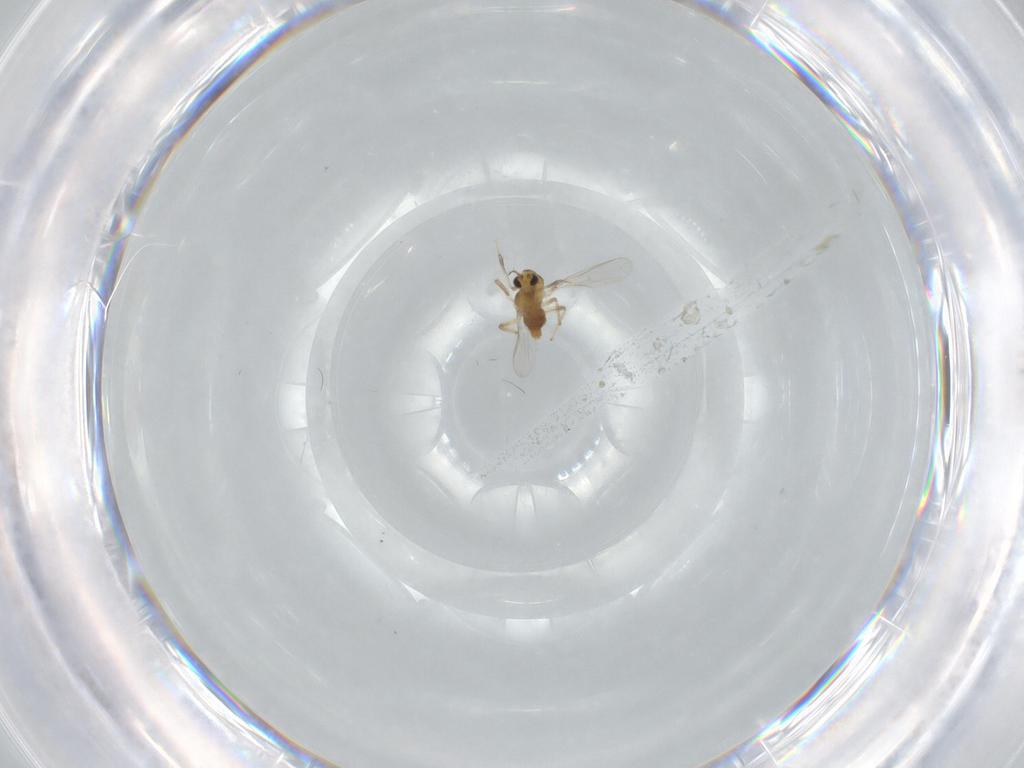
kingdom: Animalia
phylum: Arthropoda
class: Insecta
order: Diptera
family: Chironomidae
